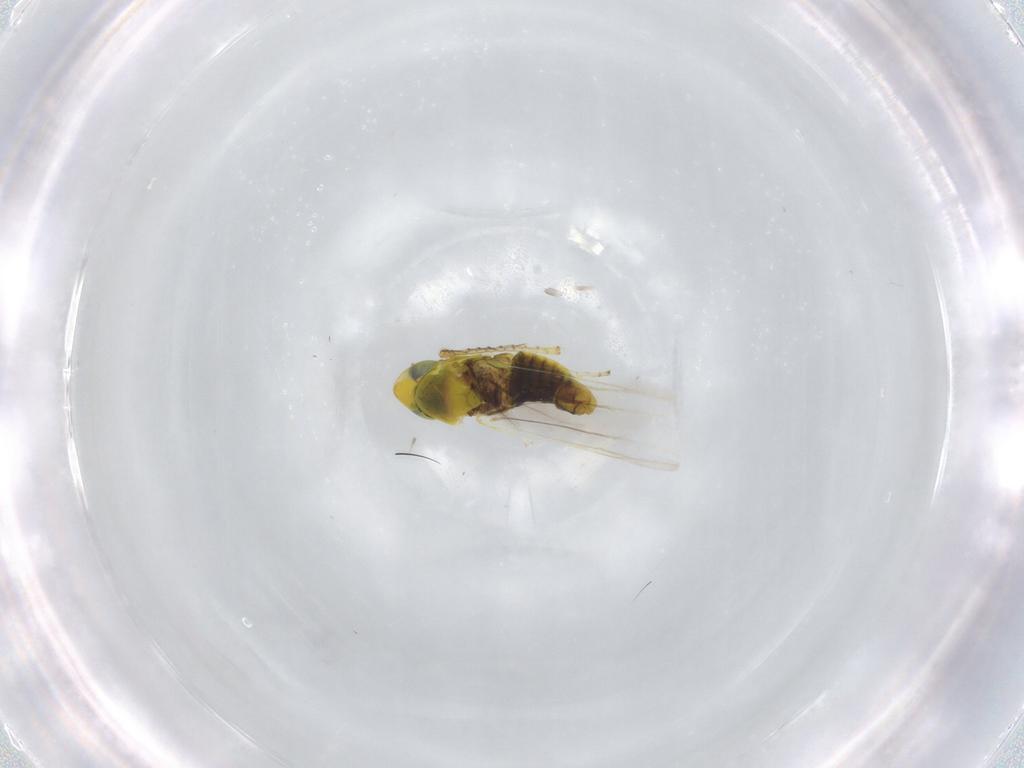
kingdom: Animalia
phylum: Arthropoda
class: Insecta
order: Hemiptera
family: Cicadellidae
